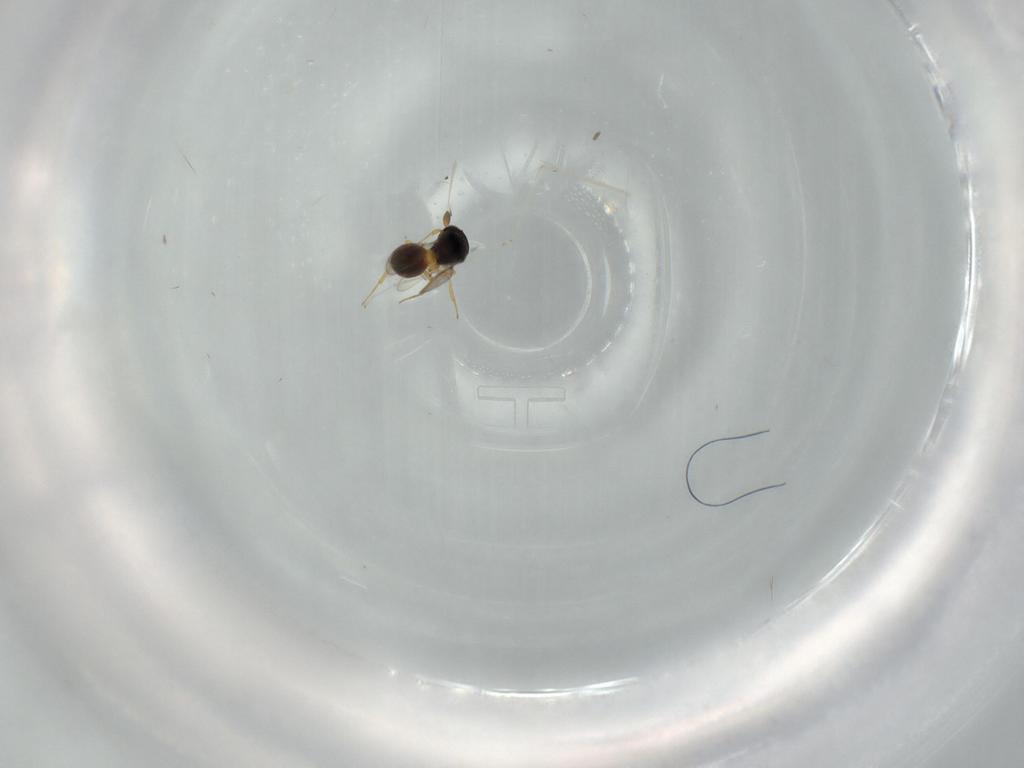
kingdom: Animalia
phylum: Arthropoda
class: Insecta
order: Hymenoptera
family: Scelionidae
